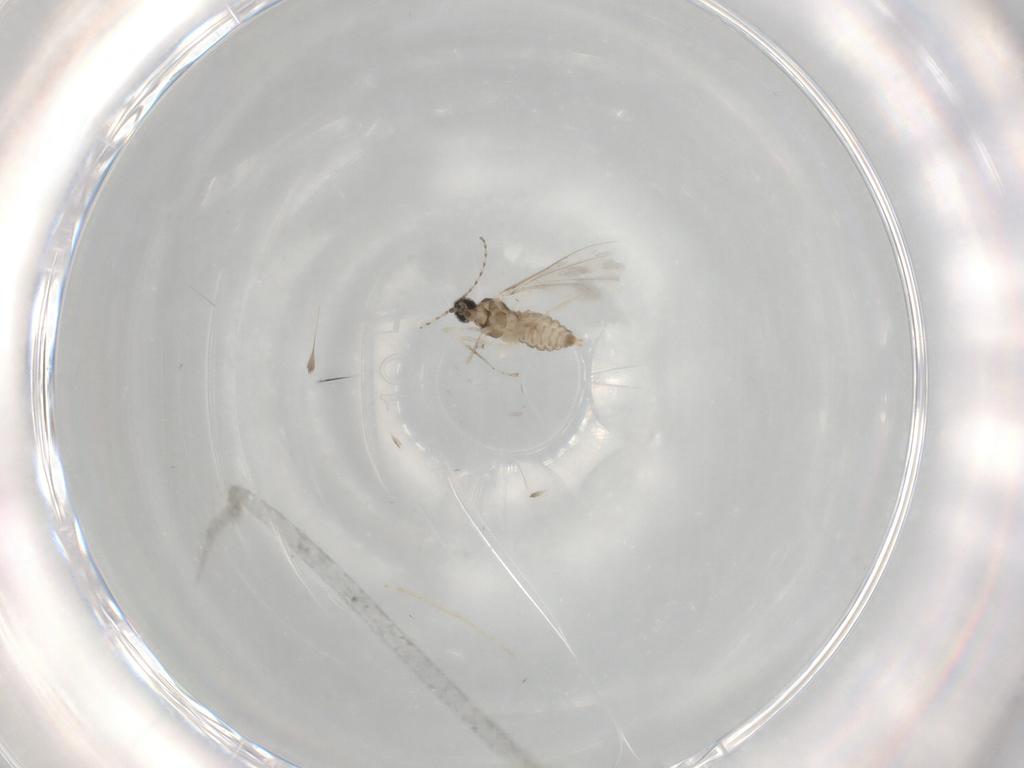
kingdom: Animalia
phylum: Arthropoda
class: Insecta
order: Diptera
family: Cecidomyiidae
